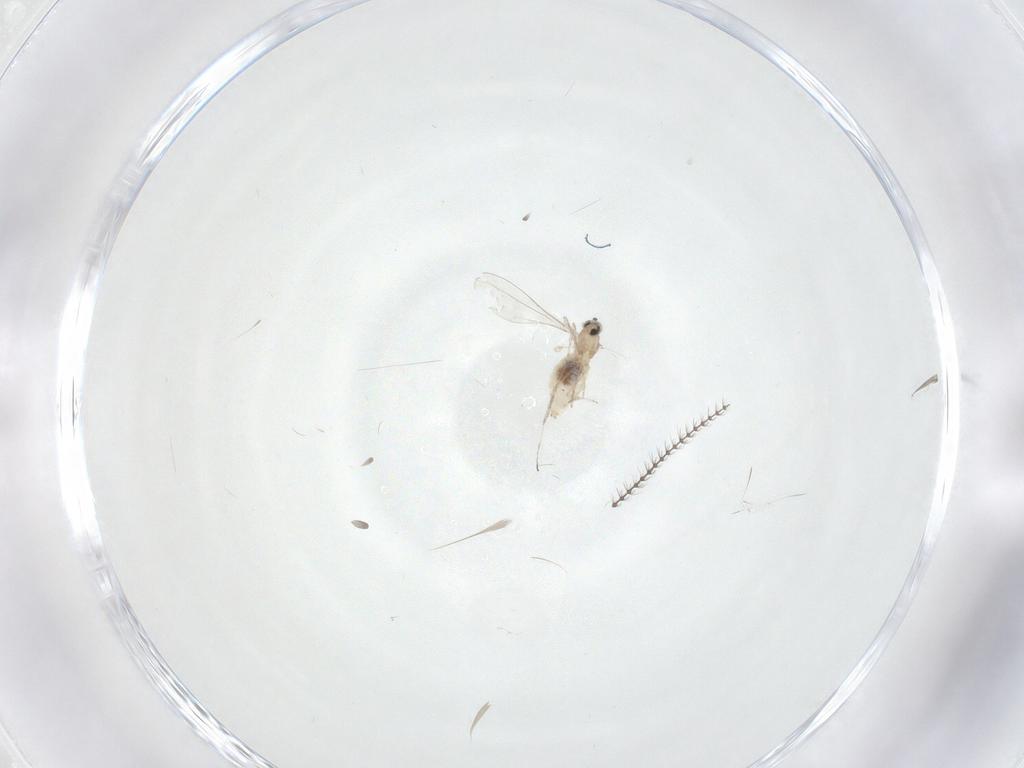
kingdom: Animalia
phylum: Arthropoda
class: Insecta
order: Diptera
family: Cecidomyiidae
